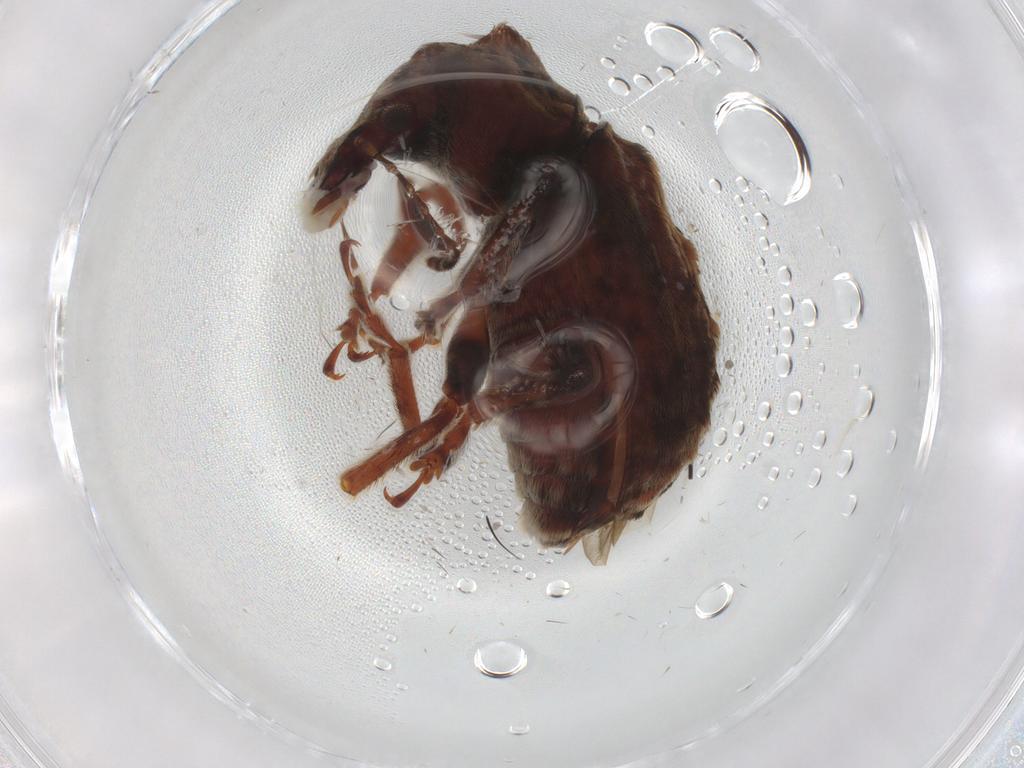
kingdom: Animalia
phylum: Arthropoda
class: Insecta
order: Coleoptera
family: Anthribidae
